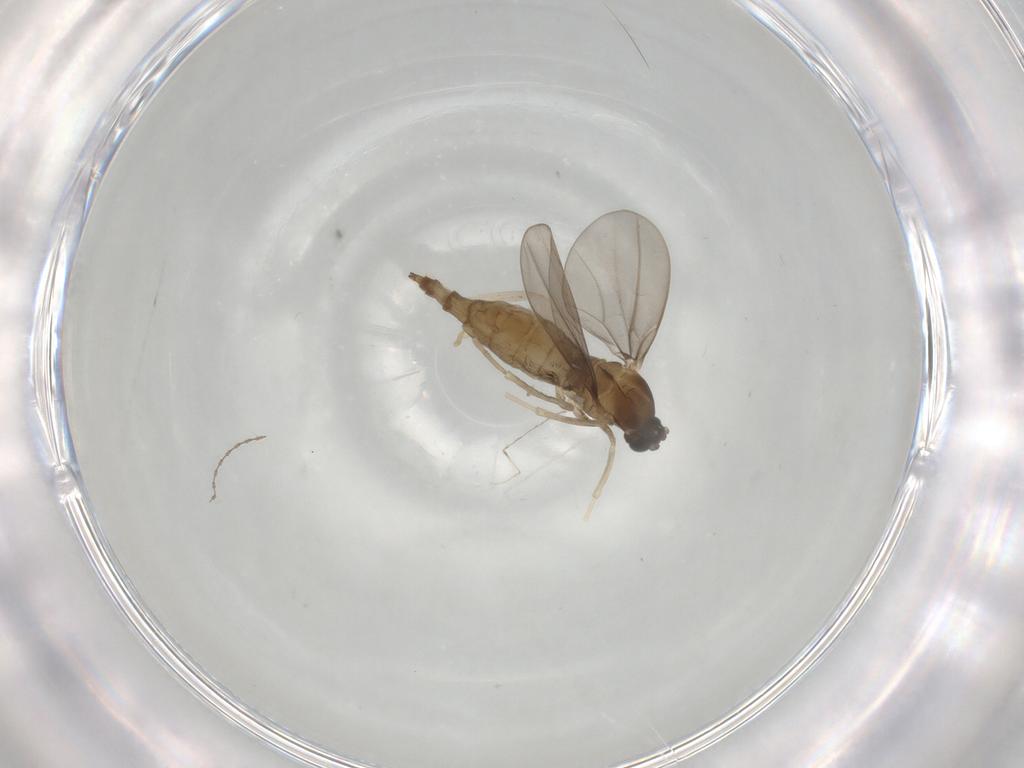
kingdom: Animalia
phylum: Arthropoda
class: Insecta
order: Diptera
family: Cecidomyiidae
